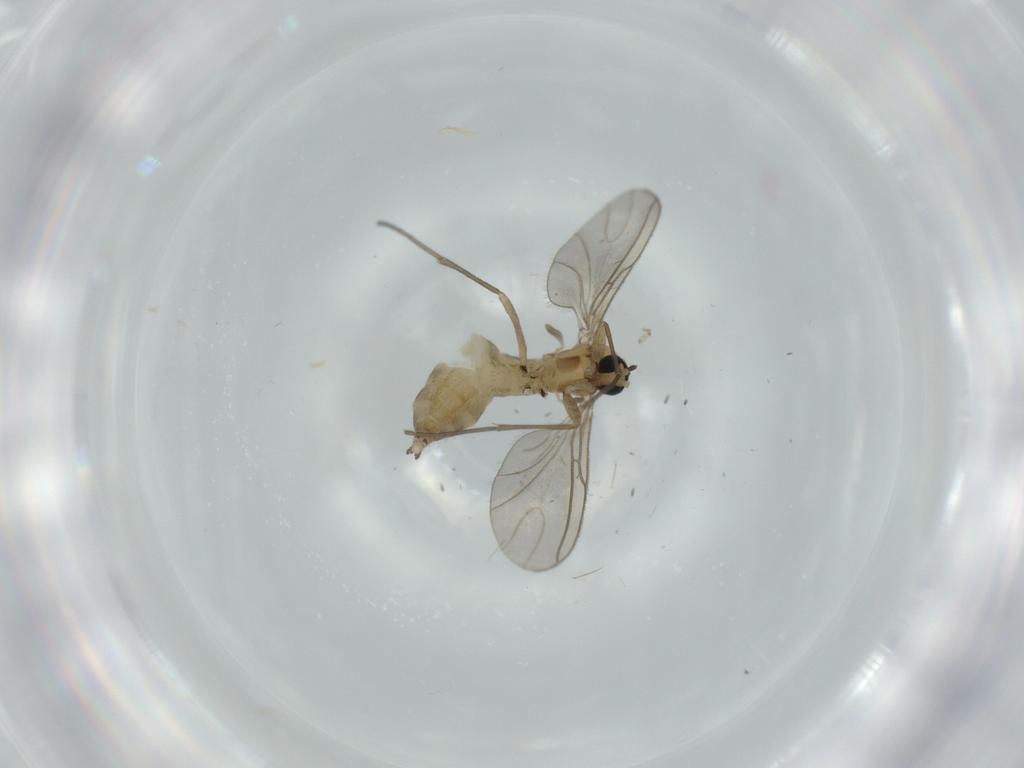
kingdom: Animalia
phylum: Arthropoda
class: Insecta
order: Diptera
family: Sciaridae
